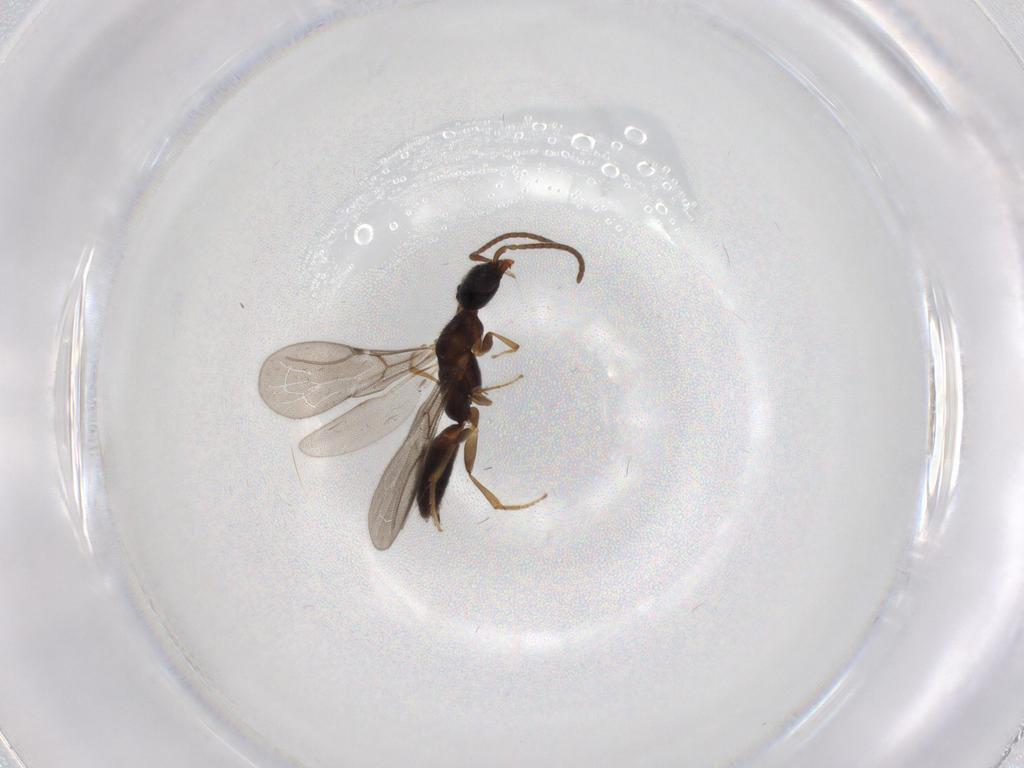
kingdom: Animalia
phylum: Arthropoda
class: Insecta
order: Hymenoptera
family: Bethylidae
